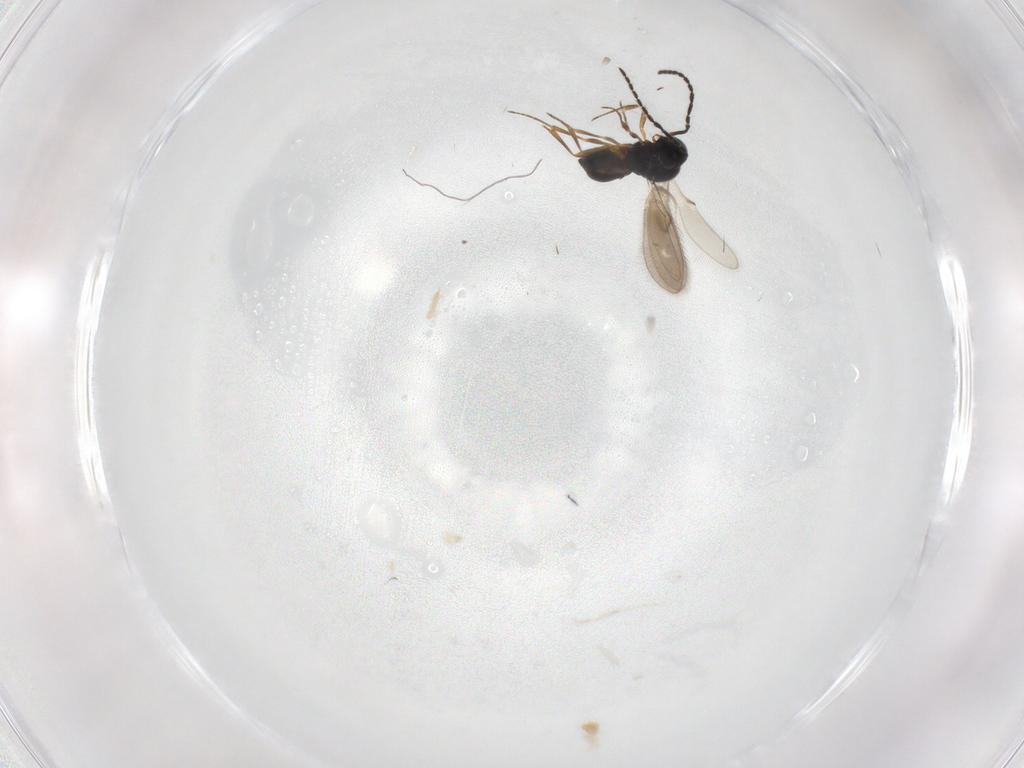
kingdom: Animalia
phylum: Arthropoda
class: Insecta
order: Hymenoptera
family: Scelionidae
